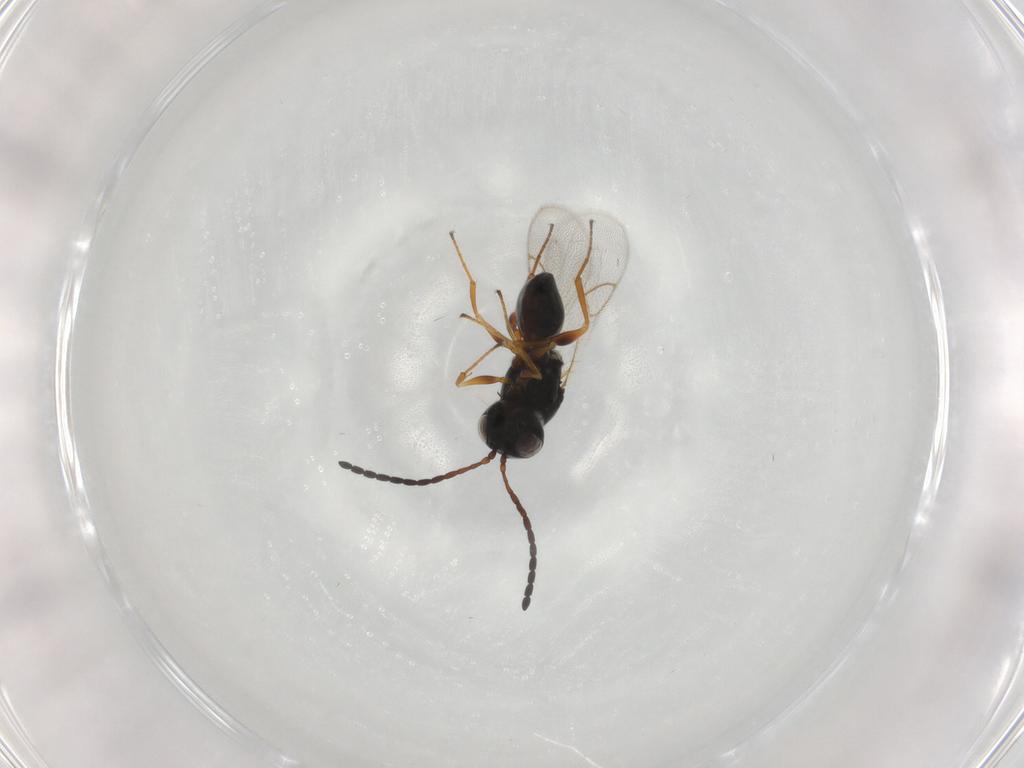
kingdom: Animalia
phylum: Arthropoda
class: Insecta
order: Hymenoptera
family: Figitidae
